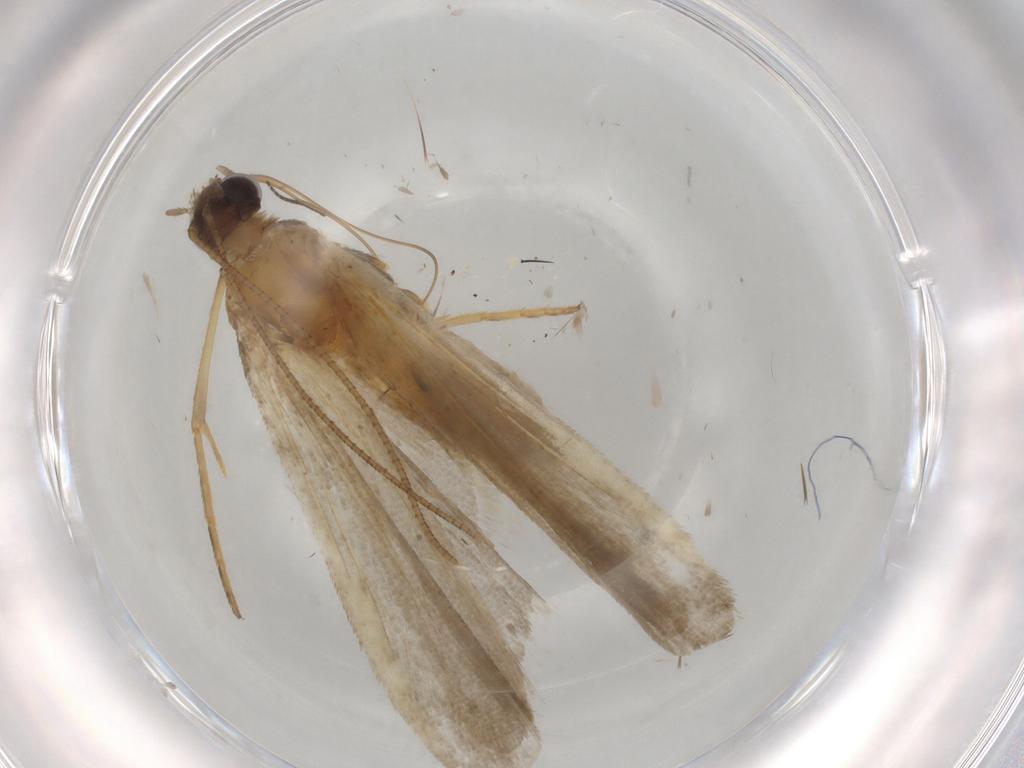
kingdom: Animalia
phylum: Arthropoda
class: Insecta
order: Lepidoptera
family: Noctuidae
